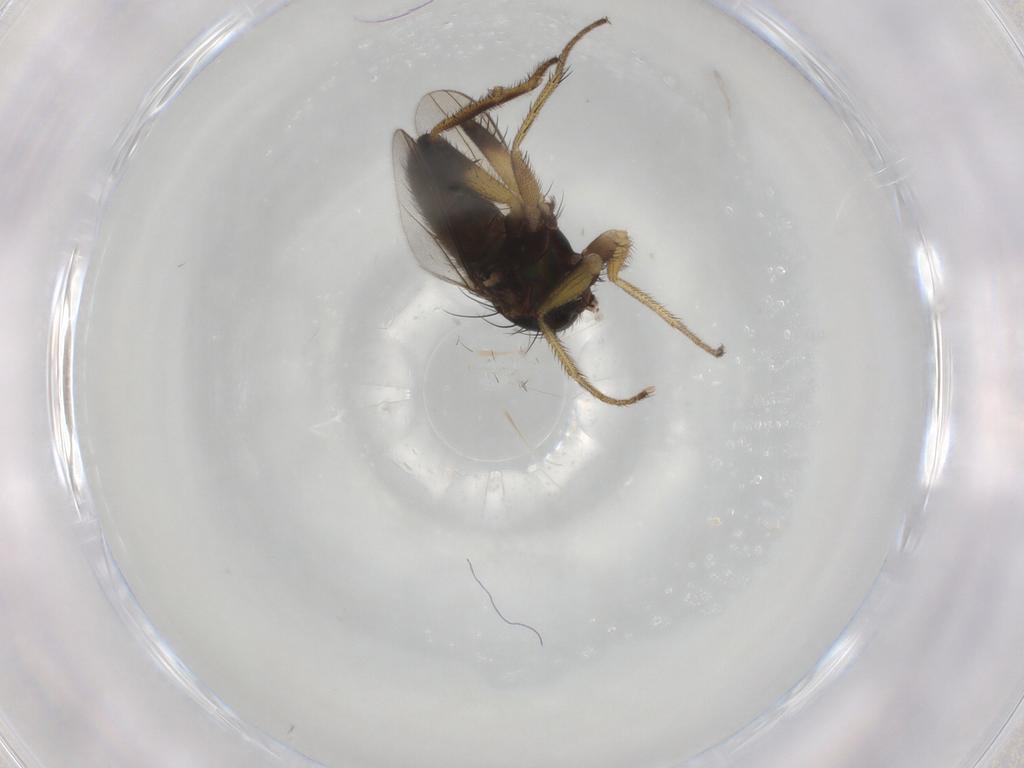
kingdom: Animalia
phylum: Arthropoda
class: Insecta
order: Diptera
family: Dolichopodidae
